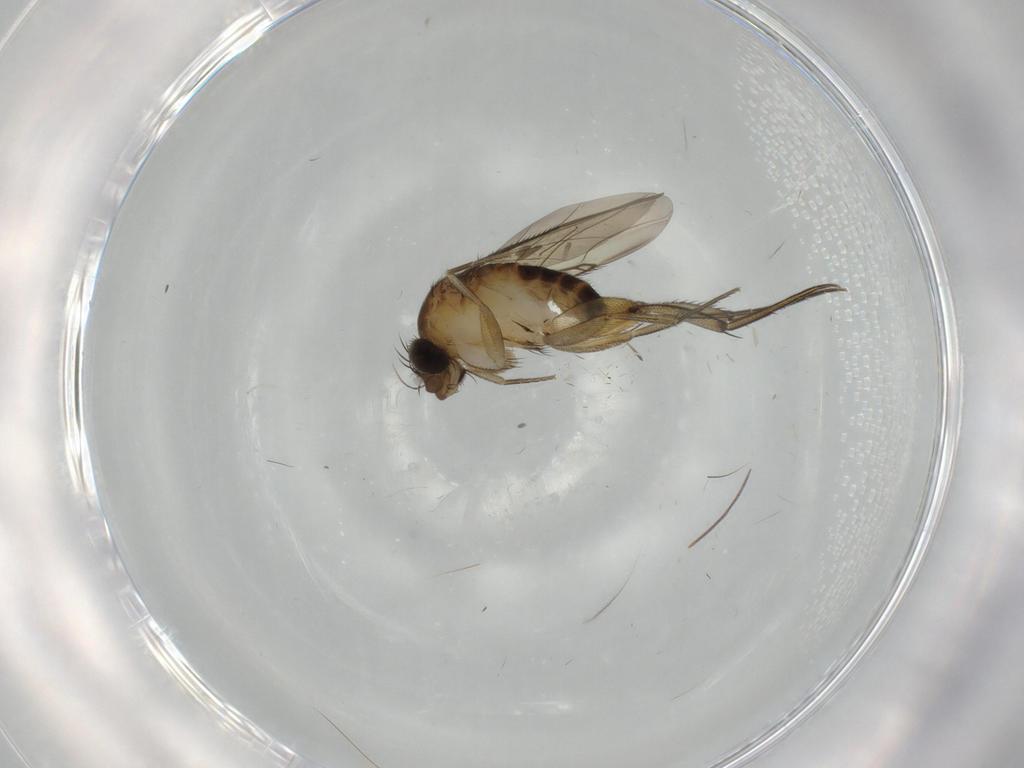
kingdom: Animalia
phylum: Arthropoda
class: Insecta
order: Diptera
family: Phoridae
